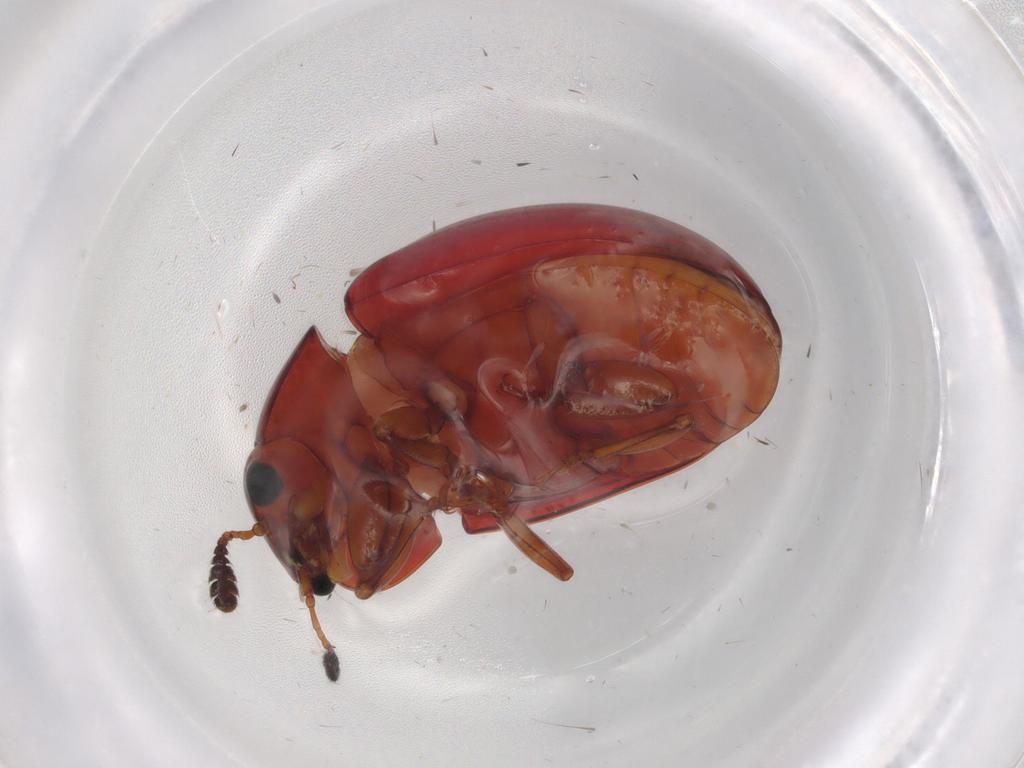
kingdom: Animalia
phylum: Arthropoda
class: Insecta
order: Coleoptera
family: Erotylidae
